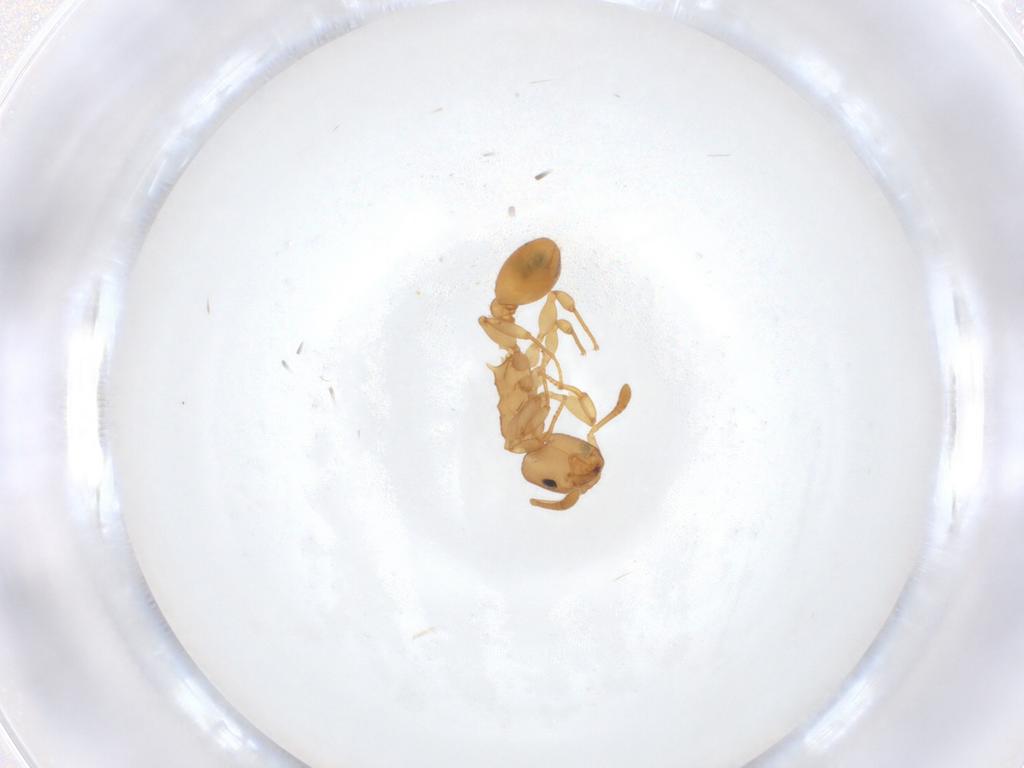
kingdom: Animalia
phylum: Arthropoda
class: Insecta
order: Hymenoptera
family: Formicidae
